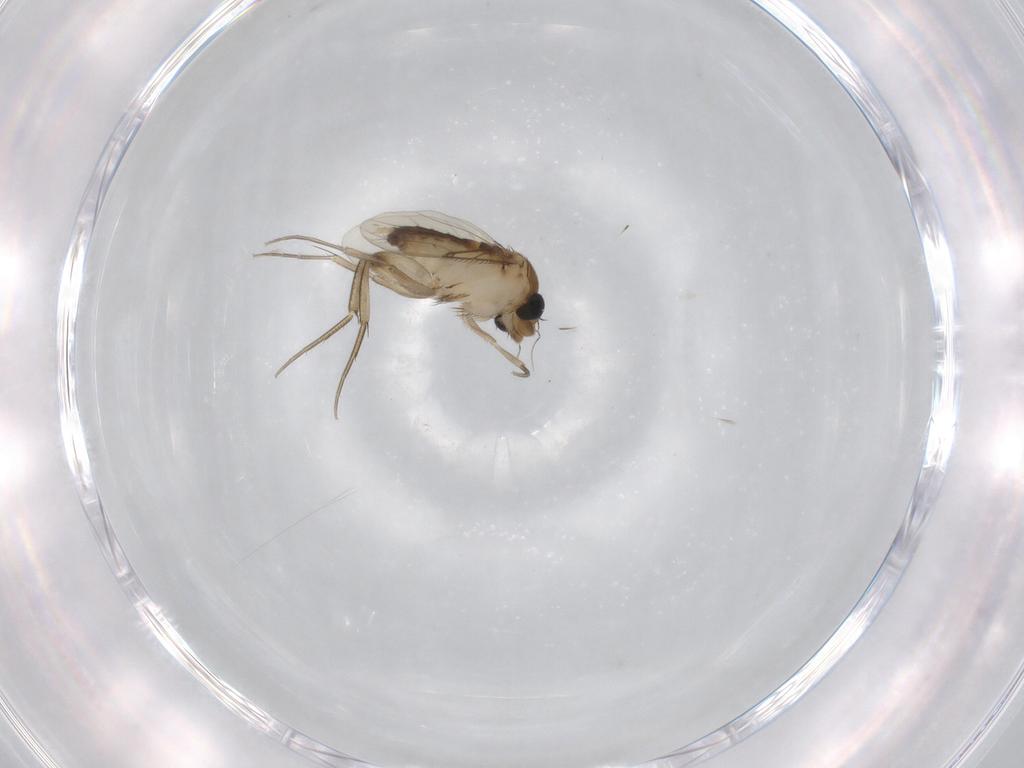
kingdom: Animalia
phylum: Arthropoda
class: Insecta
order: Diptera
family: Phoridae
